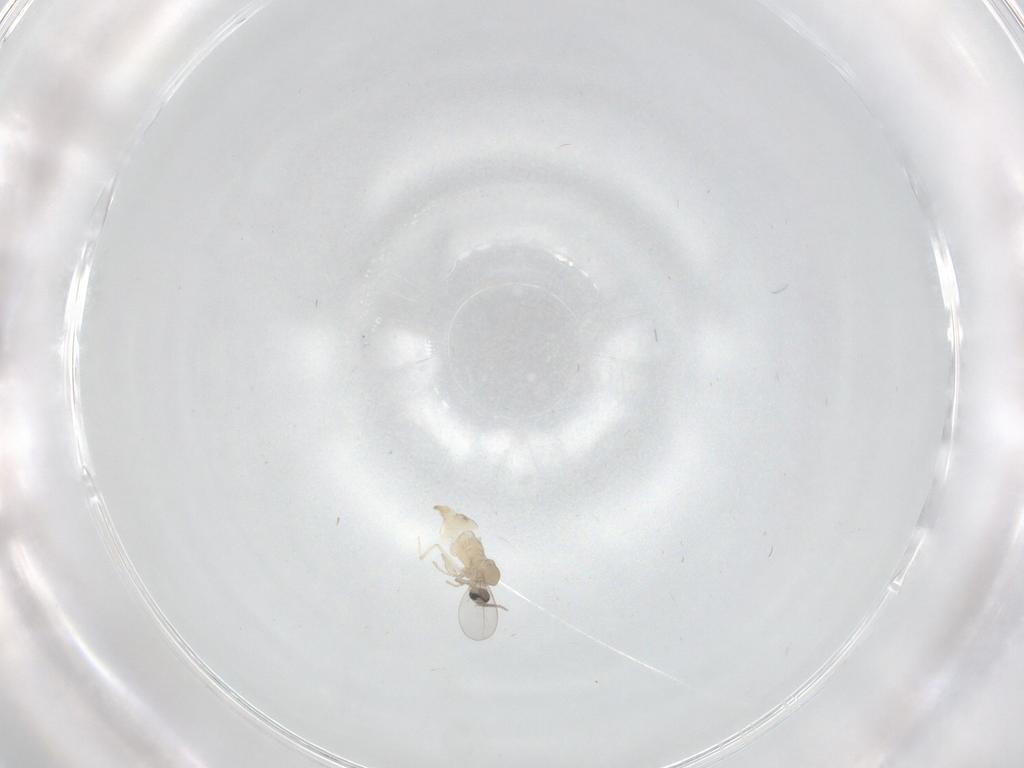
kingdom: Animalia
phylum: Arthropoda
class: Insecta
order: Diptera
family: Cecidomyiidae
